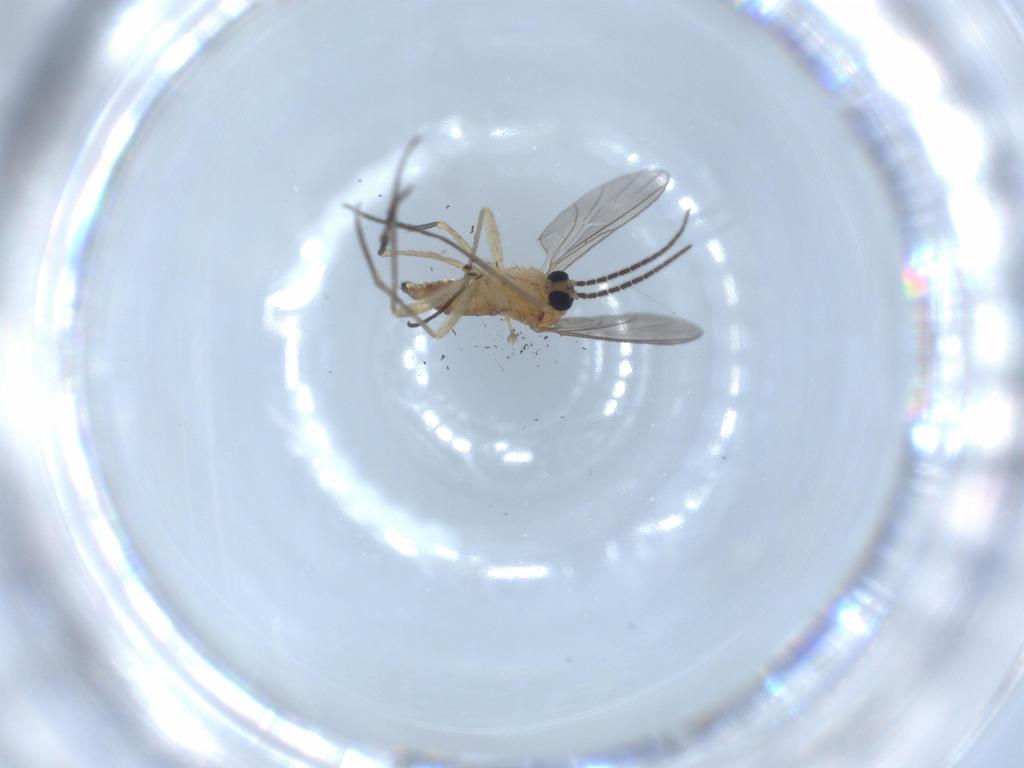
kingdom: Animalia
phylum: Arthropoda
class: Insecta
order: Diptera
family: Sciaridae
